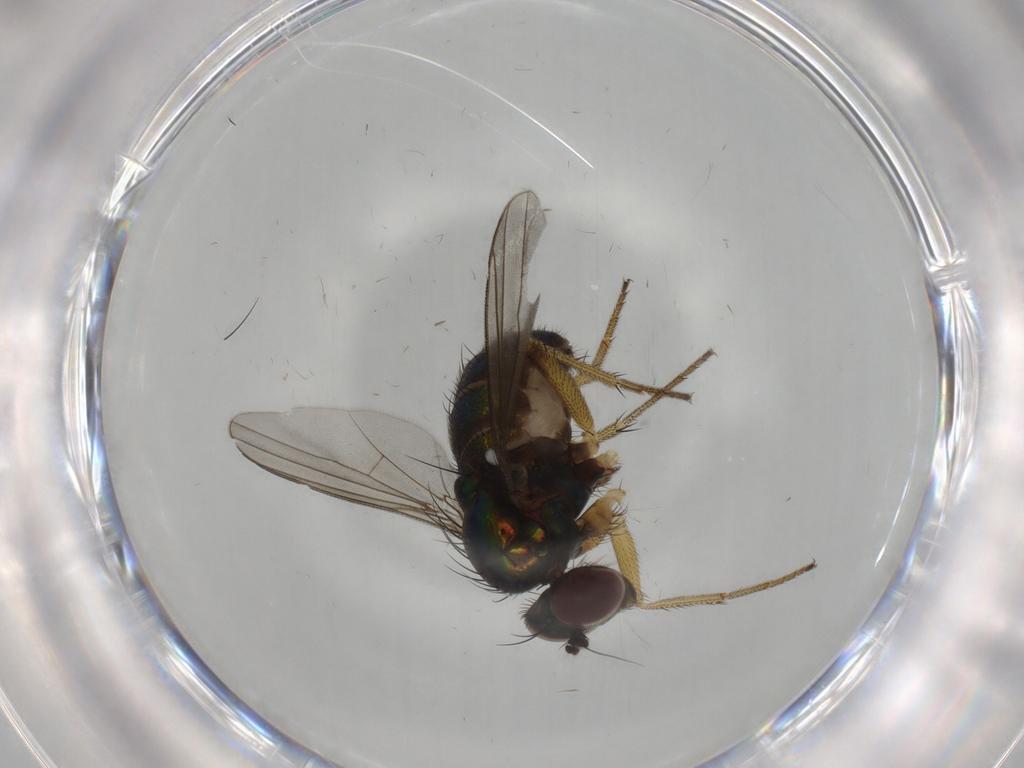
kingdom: Animalia
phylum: Arthropoda
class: Insecta
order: Diptera
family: Dolichopodidae
